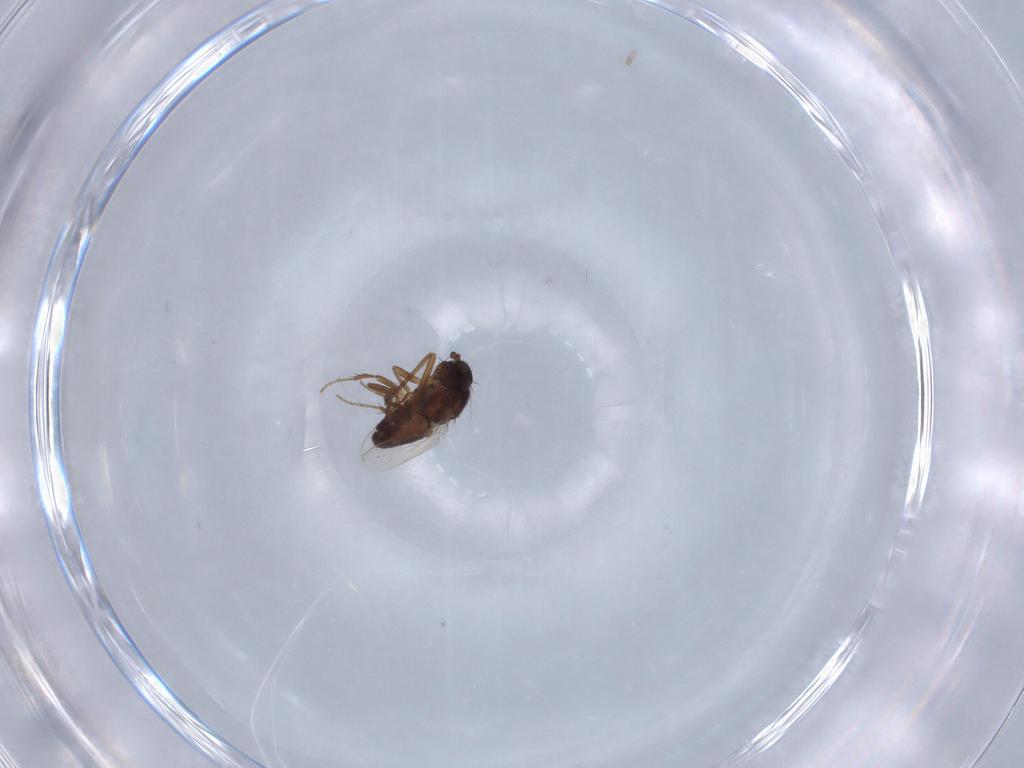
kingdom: Animalia
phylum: Arthropoda
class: Insecta
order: Diptera
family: Sphaeroceridae
